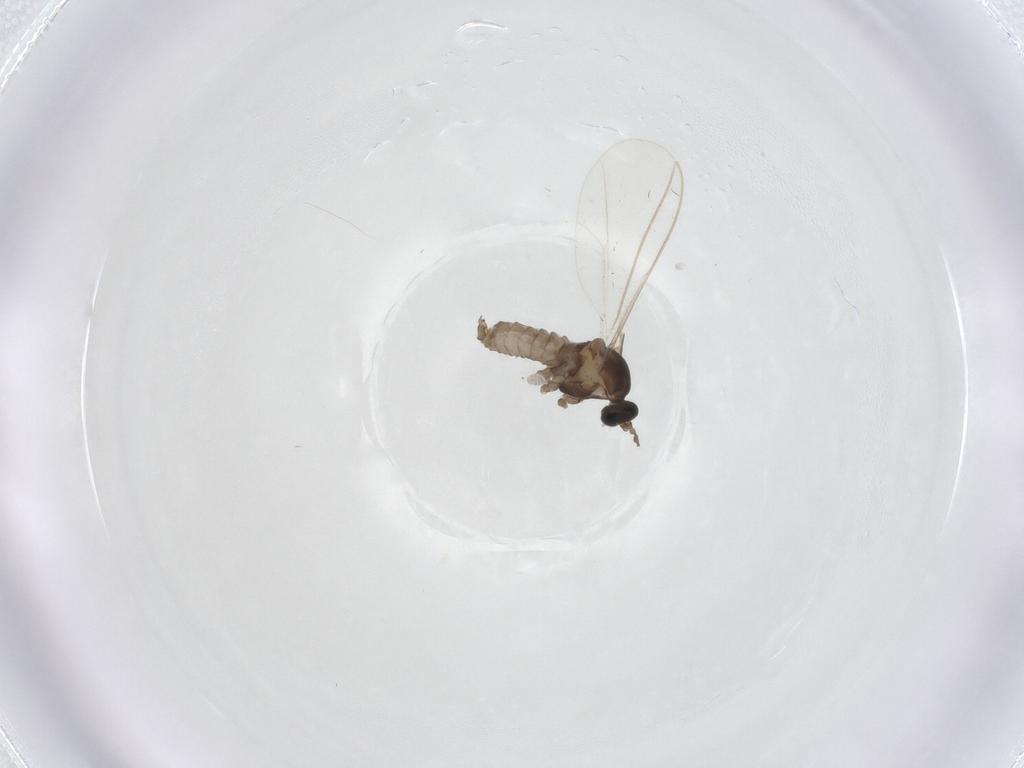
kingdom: Animalia
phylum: Arthropoda
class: Insecta
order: Diptera
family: Cecidomyiidae
